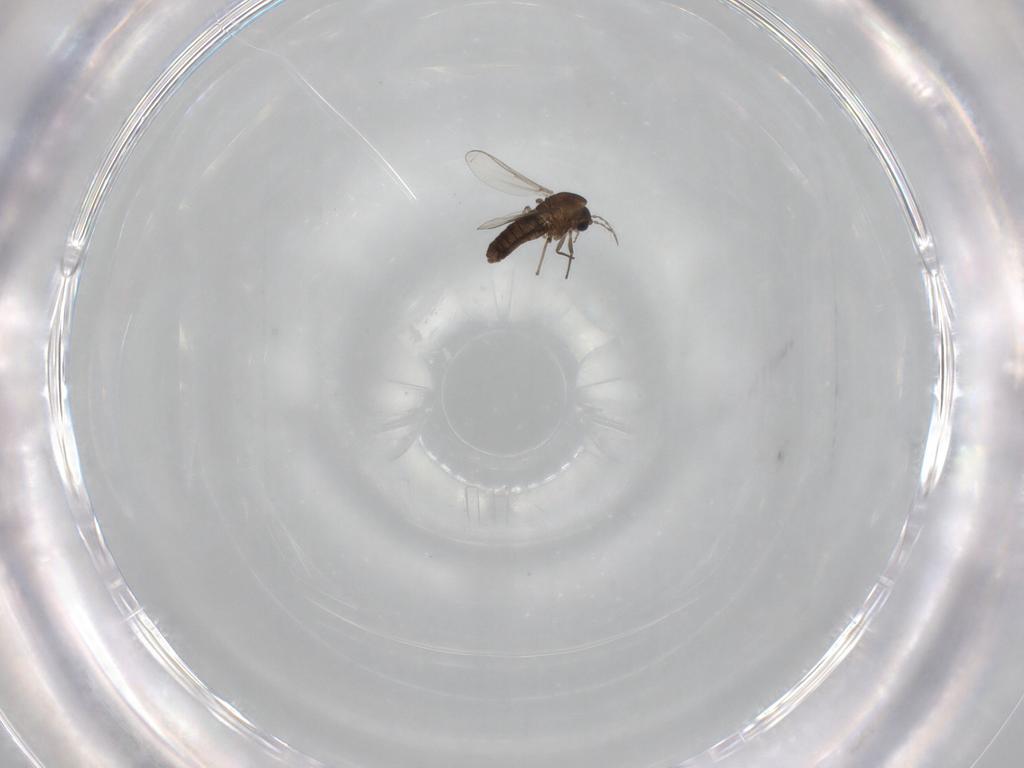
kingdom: Animalia
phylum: Arthropoda
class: Insecta
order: Diptera
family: Chironomidae
